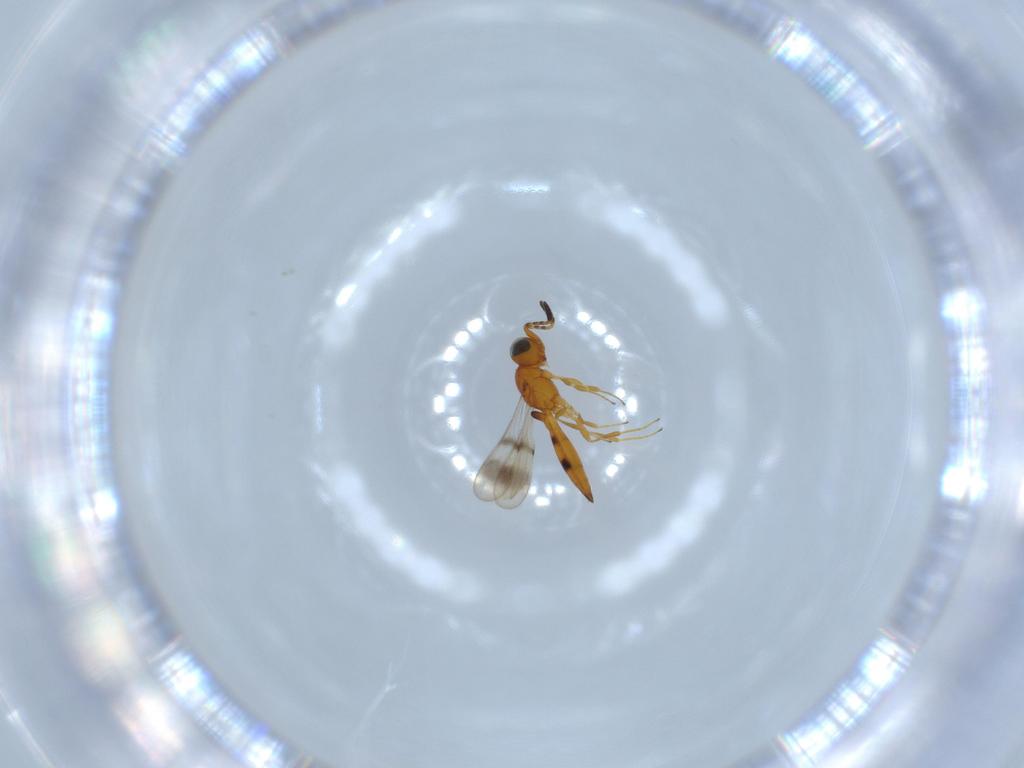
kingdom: Animalia
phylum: Arthropoda
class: Insecta
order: Hymenoptera
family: Scelionidae
